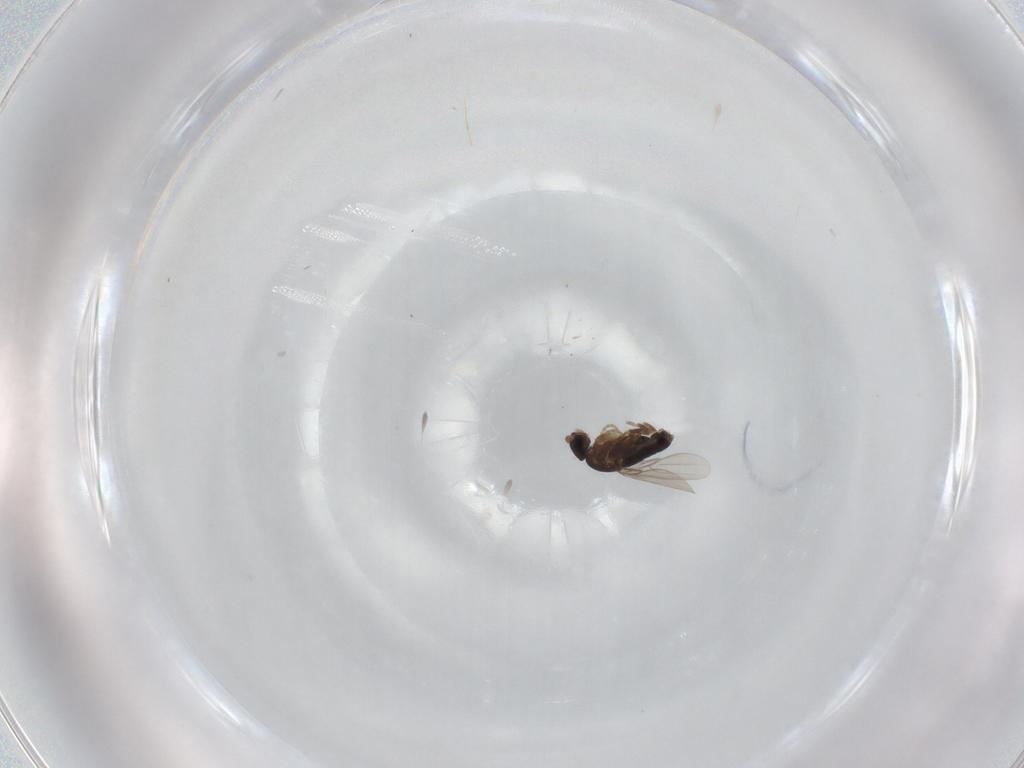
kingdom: Animalia
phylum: Arthropoda
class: Insecta
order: Diptera
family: Phoridae
